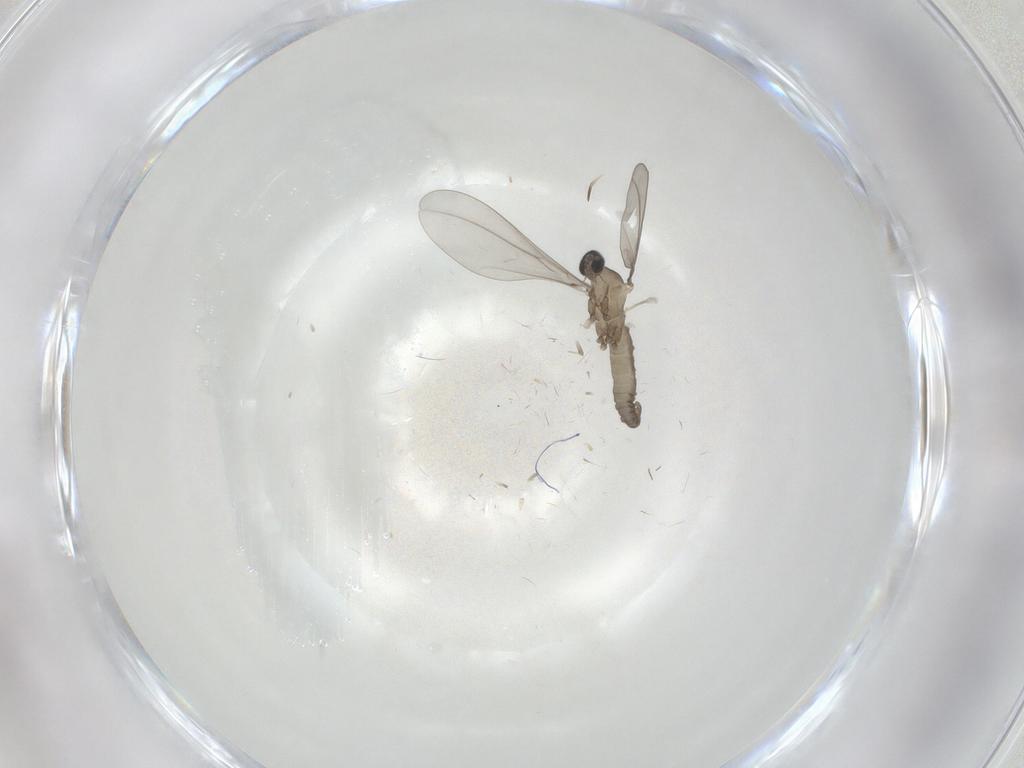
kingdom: Animalia
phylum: Arthropoda
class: Insecta
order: Diptera
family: Cecidomyiidae
